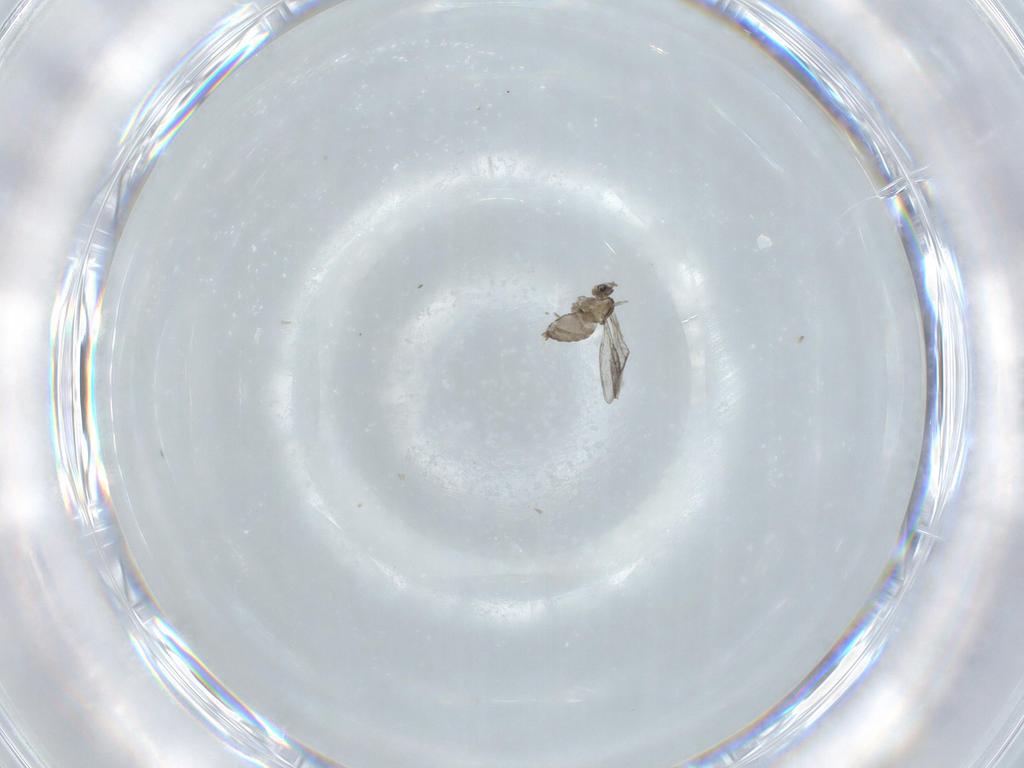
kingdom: Animalia
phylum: Arthropoda
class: Insecta
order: Diptera
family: Cecidomyiidae
